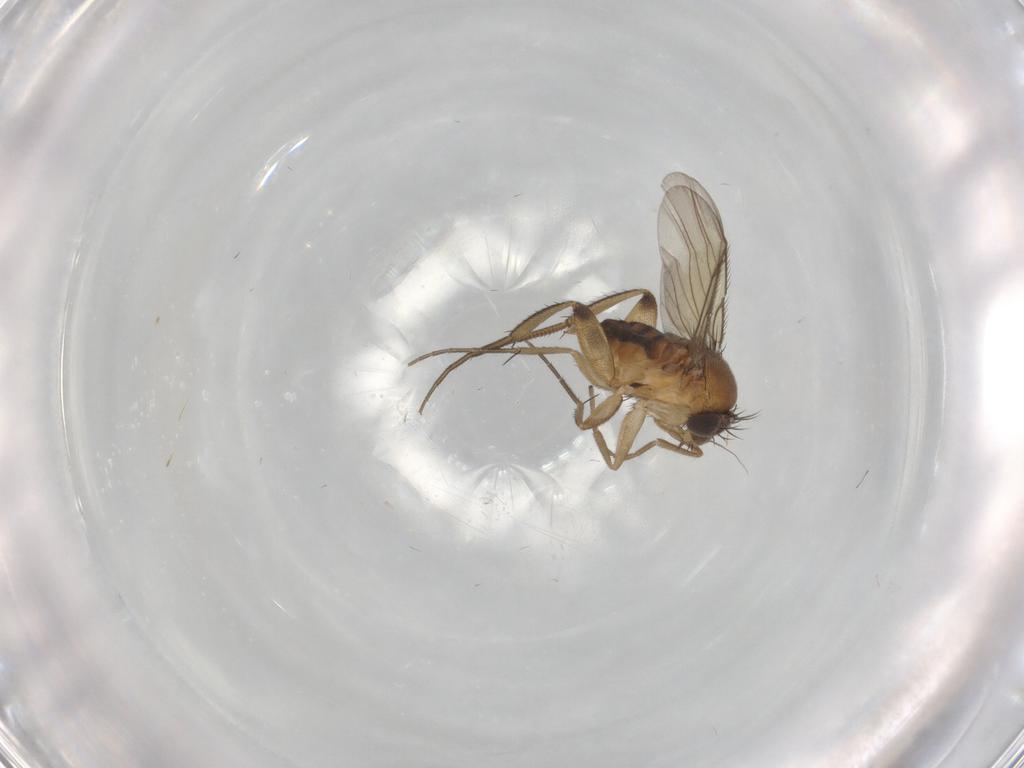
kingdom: Animalia
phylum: Arthropoda
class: Insecta
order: Diptera
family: Phoridae
